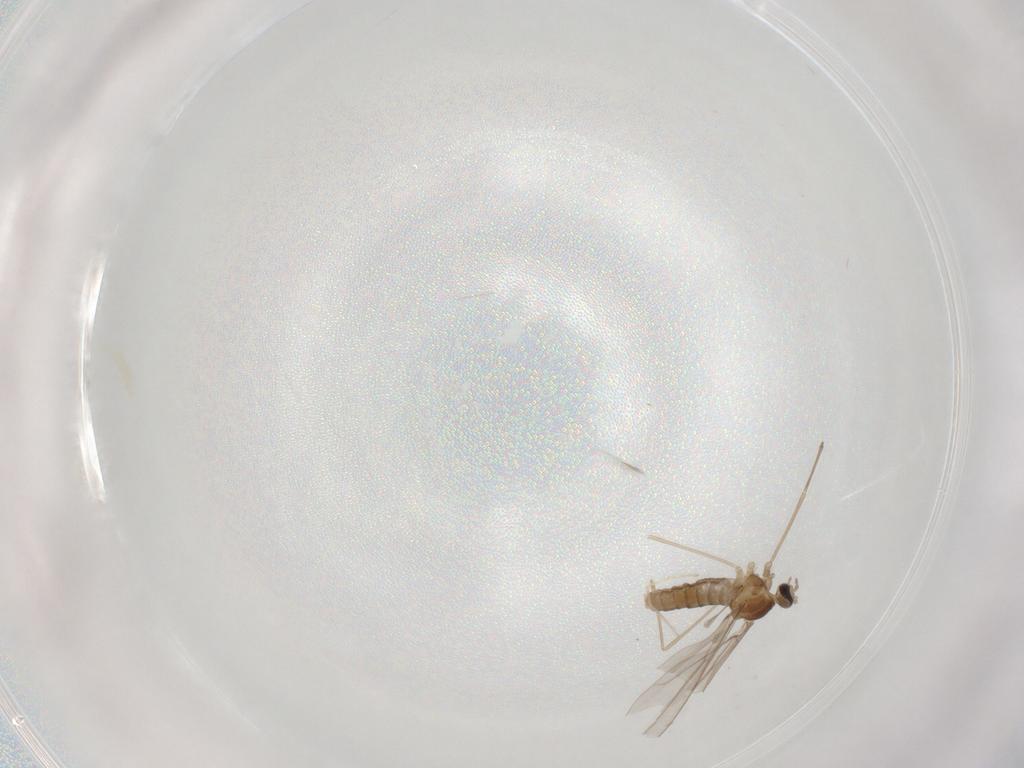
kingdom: Animalia
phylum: Arthropoda
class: Insecta
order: Diptera
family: Cecidomyiidae
